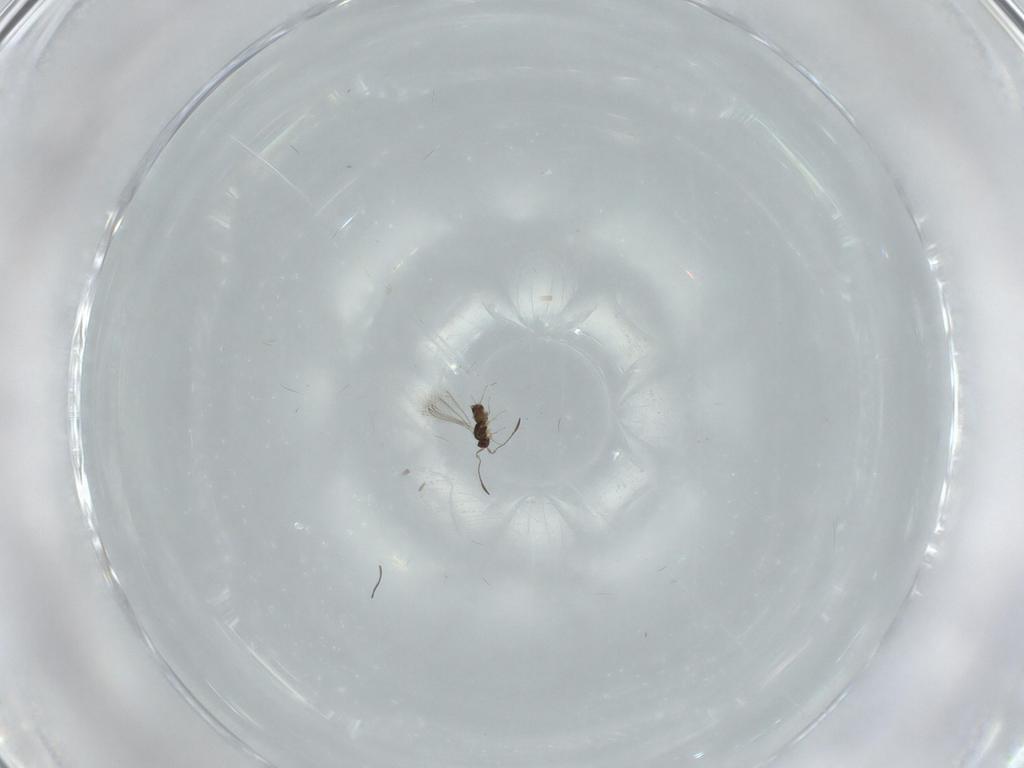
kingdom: Animalia
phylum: Arthropoda
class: Insecta
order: Hymenoptera
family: Mymaridae
